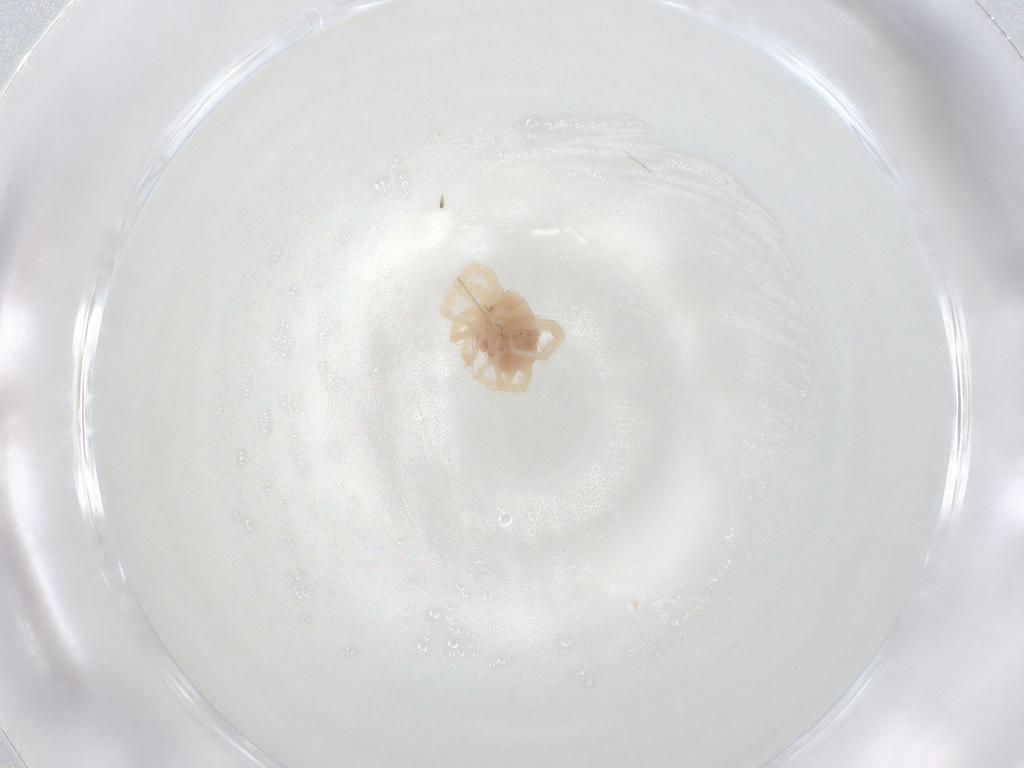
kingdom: Animalia
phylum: Arthropoda
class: Arachnida
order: Trombidiformes
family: Anystidae
